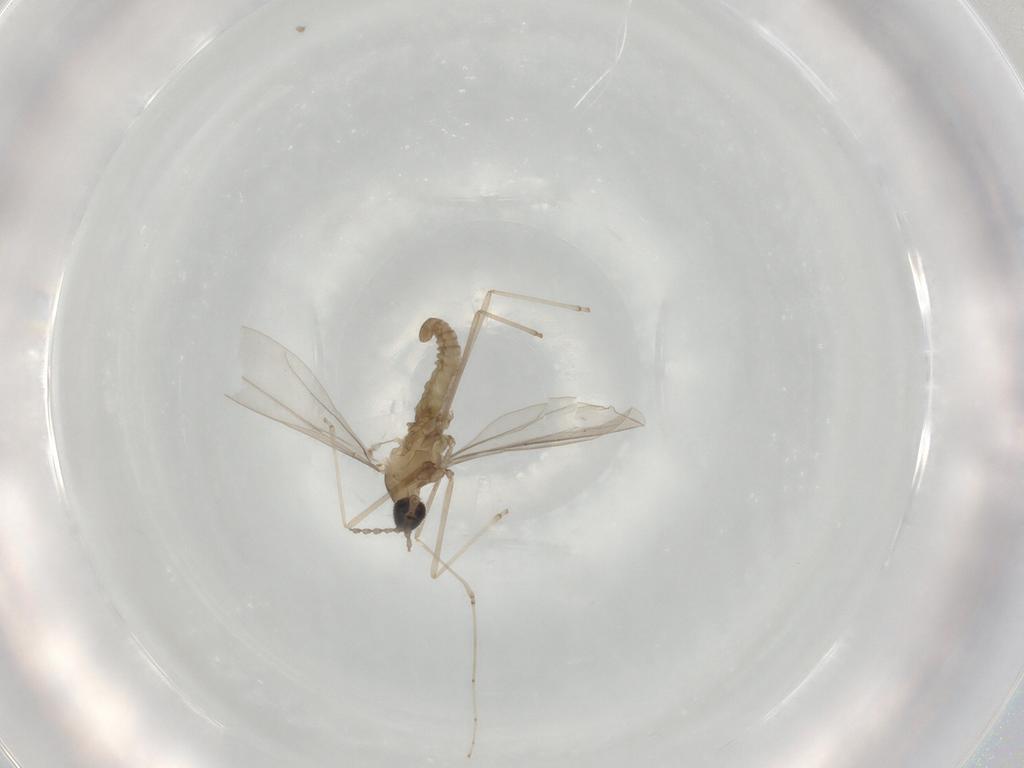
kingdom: Animalia
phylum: Arthropoda
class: Insecta
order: Diptera
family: Cecidomyiidae
